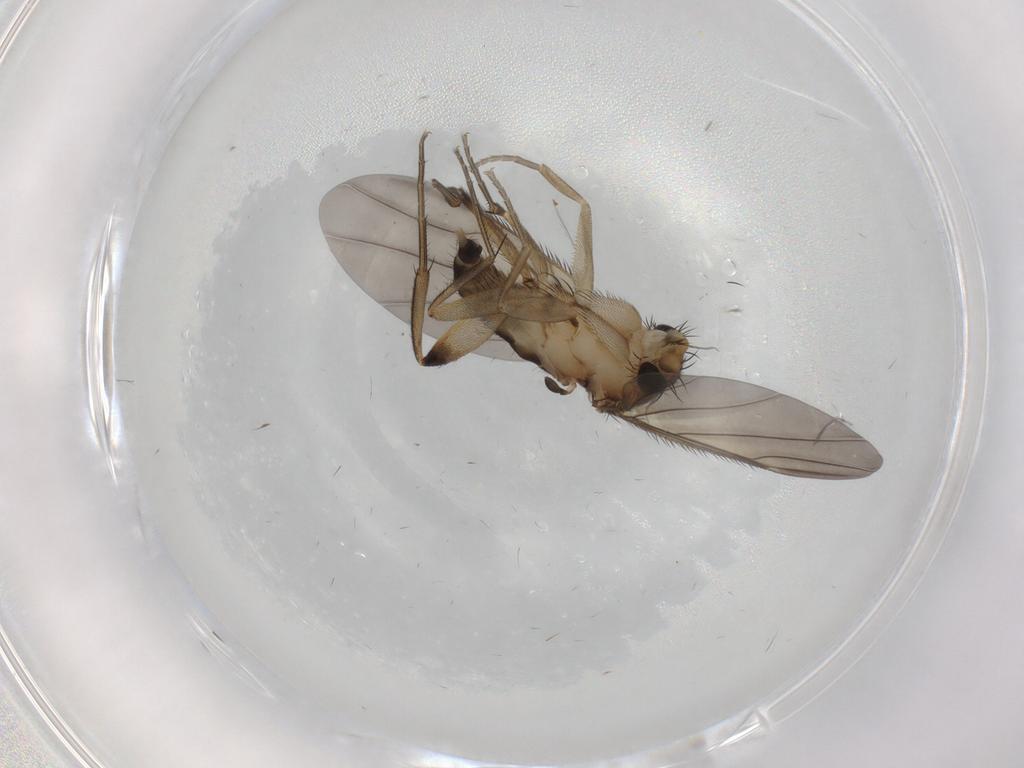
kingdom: Animalia
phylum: Arthropoda
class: Insecta
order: Diptera
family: Phoridae
